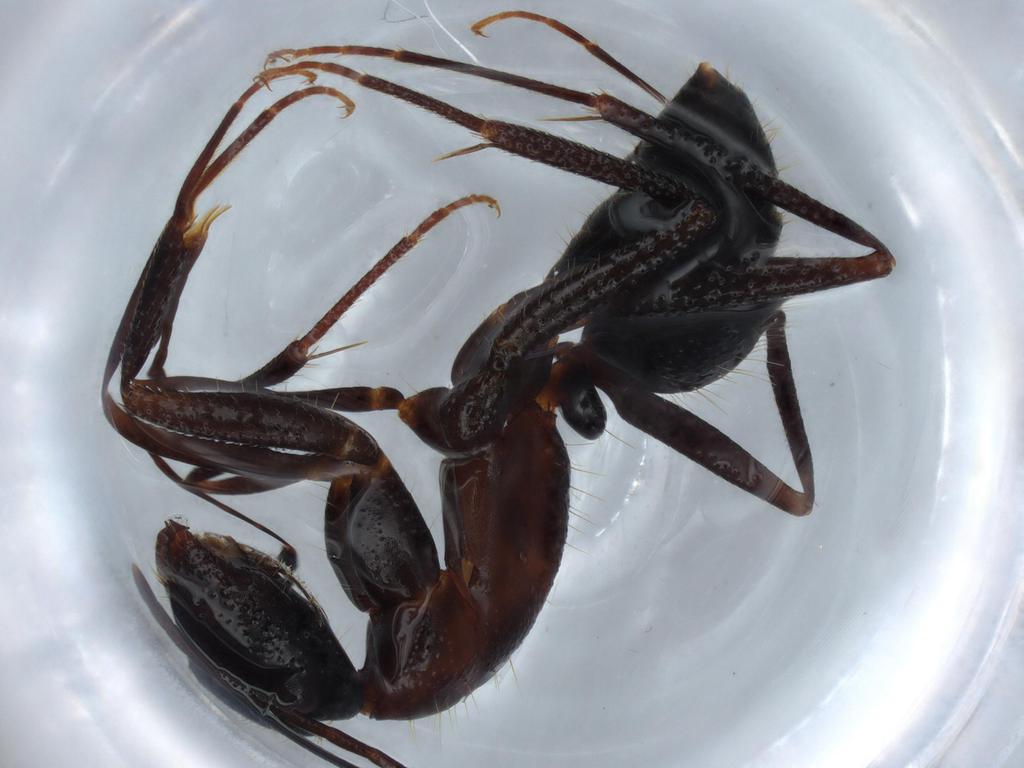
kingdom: Animalia
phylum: Arthropoda
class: Insecta
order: Hymenoptera
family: Formicidae
